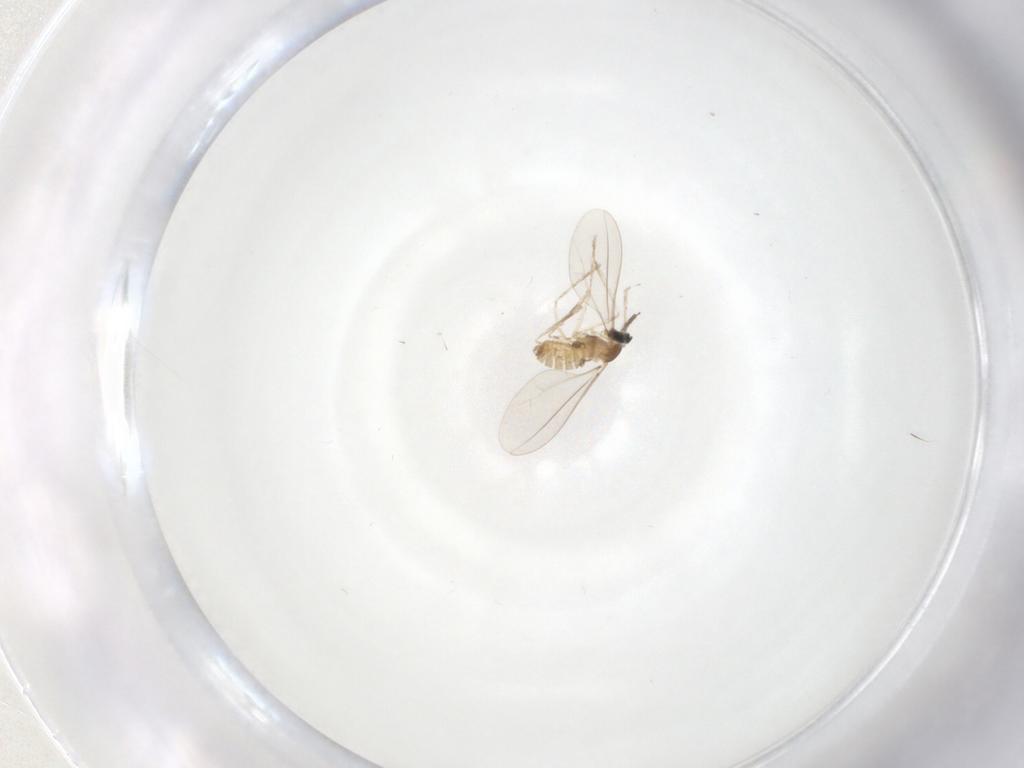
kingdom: Animalia
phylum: Arthropoda
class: Insecta
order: Diptera
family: Cecidomyiidae
